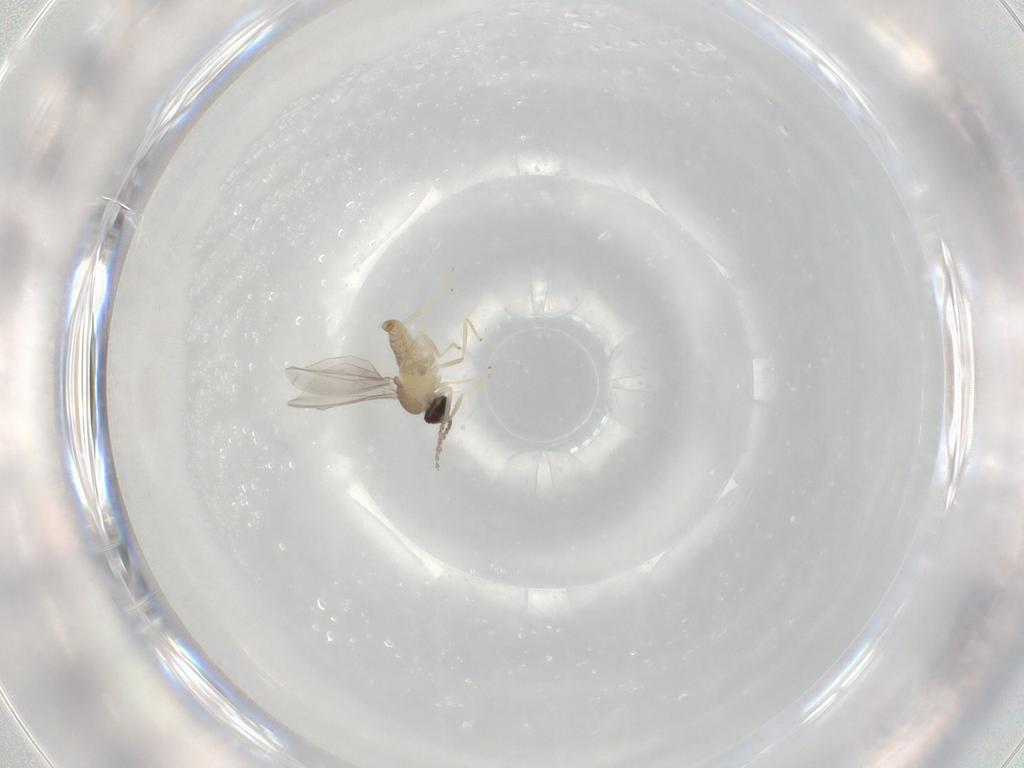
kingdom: Animalia
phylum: Arthropoda
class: Insecta
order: Diptera
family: Cecidomyiidae
